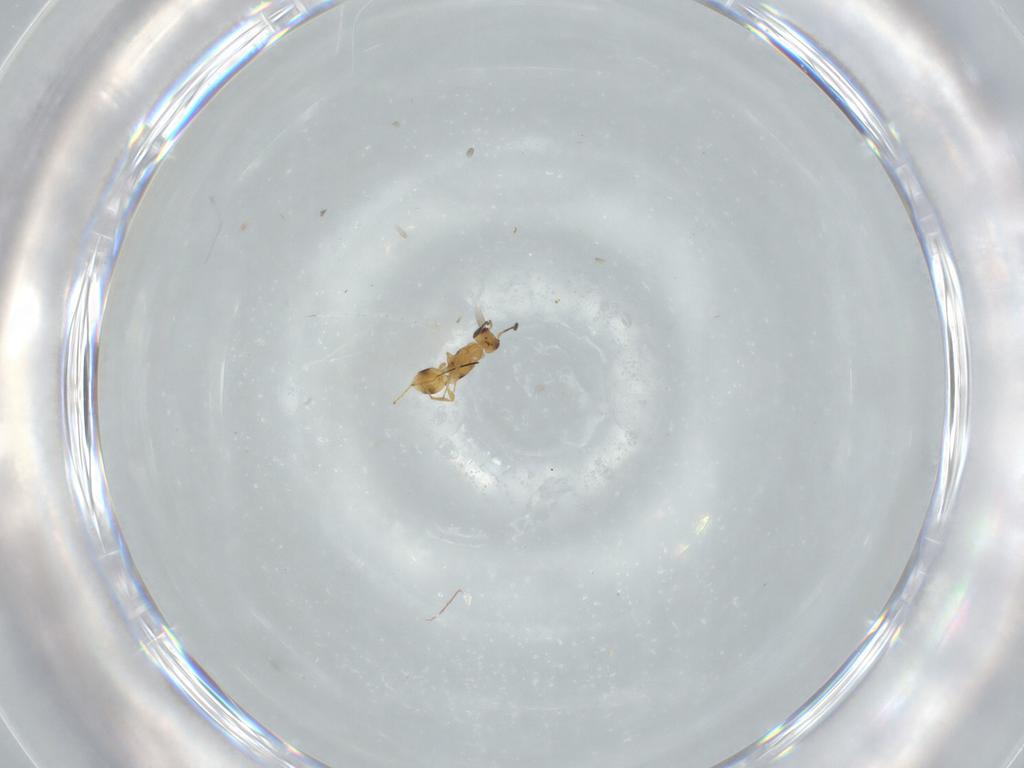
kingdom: Animalia
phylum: Arthropoda
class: Insecta
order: Hymenoptera
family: Mymaridae
